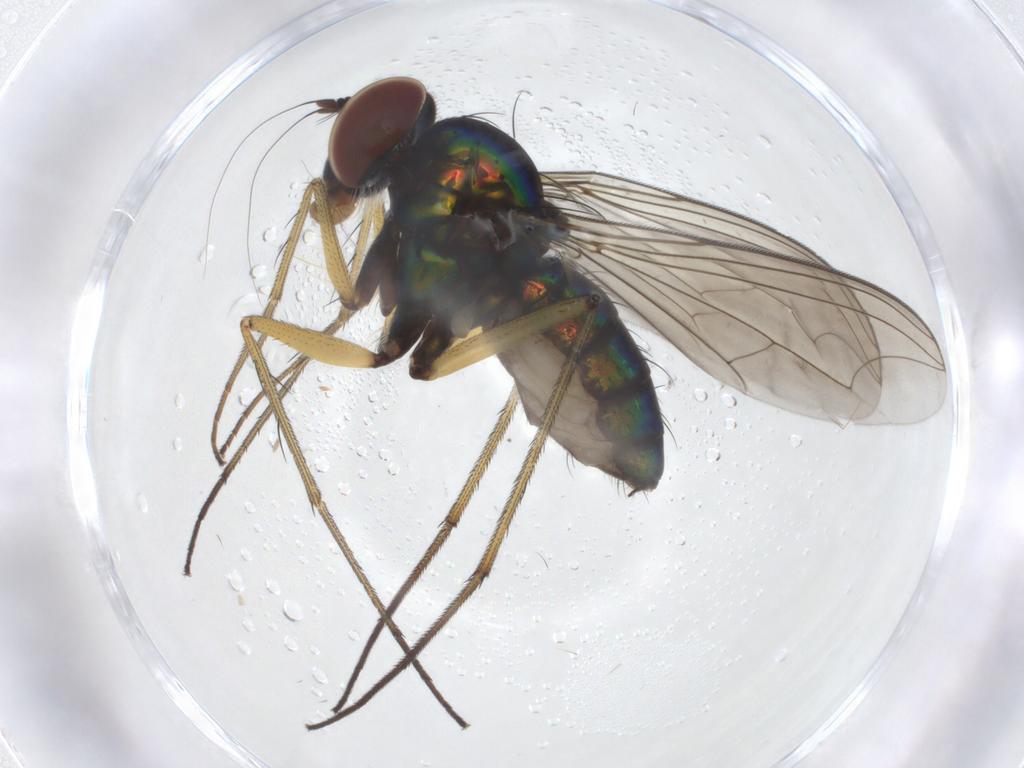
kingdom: Animalia
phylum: Arthropoda
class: Insecta
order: Diptera
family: Dolichopodidae
